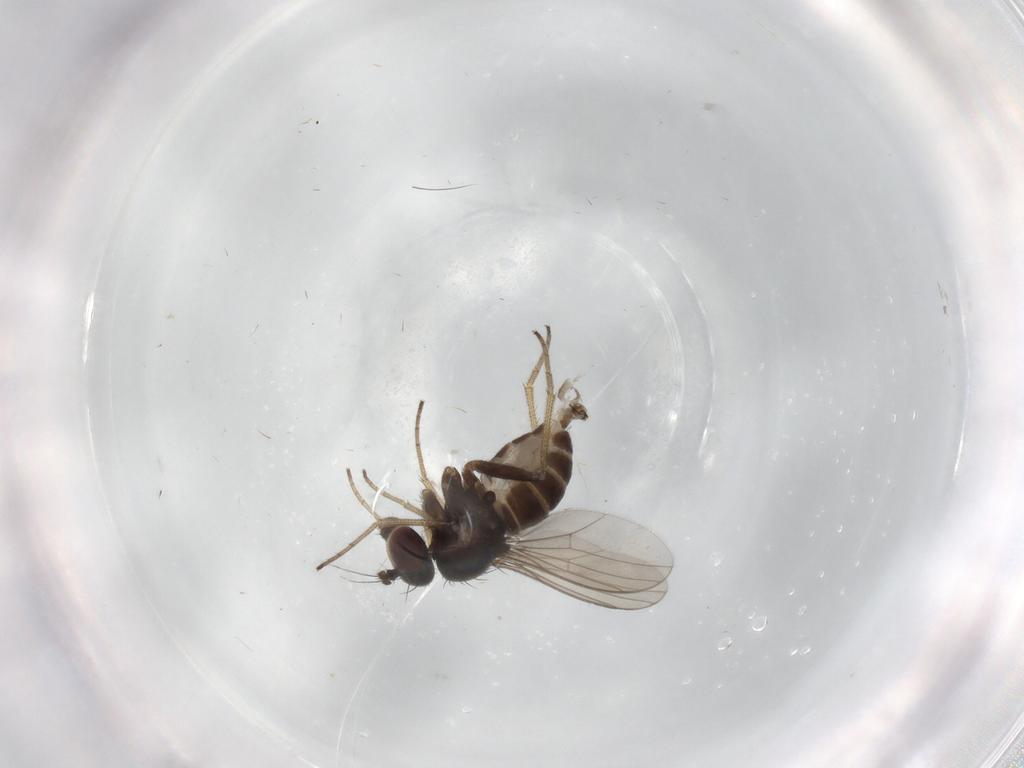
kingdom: Animalia
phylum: Arthropoda
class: Insecta
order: Diptera
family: Dolichopodidae
